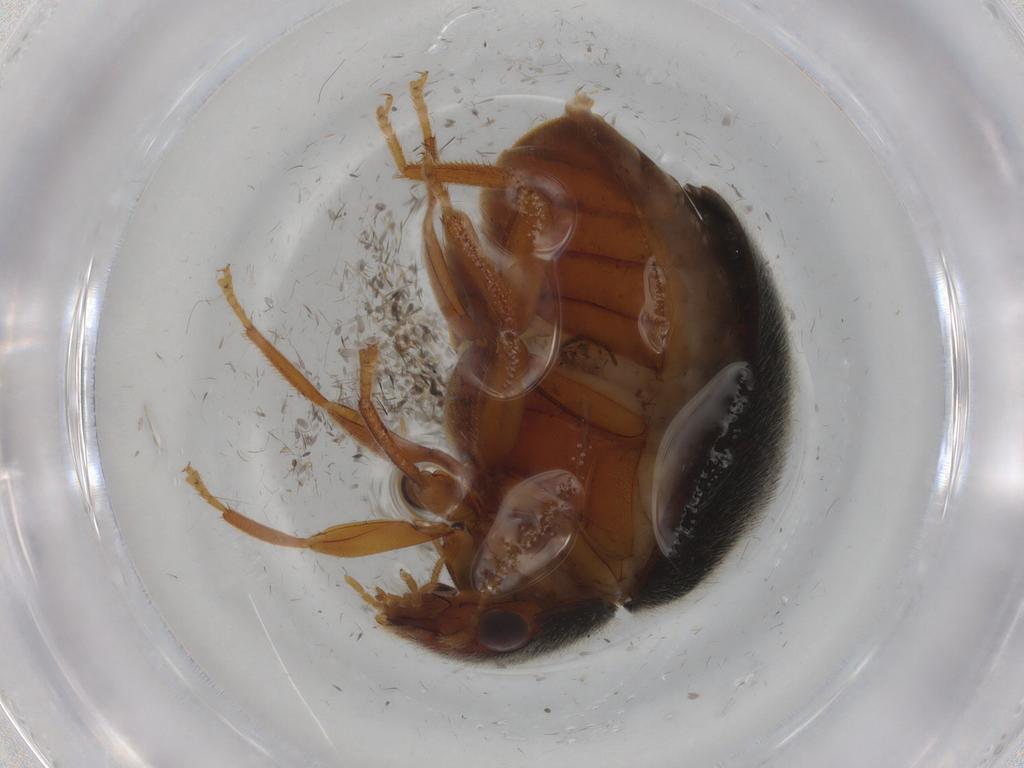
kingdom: Animalia
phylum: Arthropoda
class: Insecta
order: Coleoptera
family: Scirtidae
